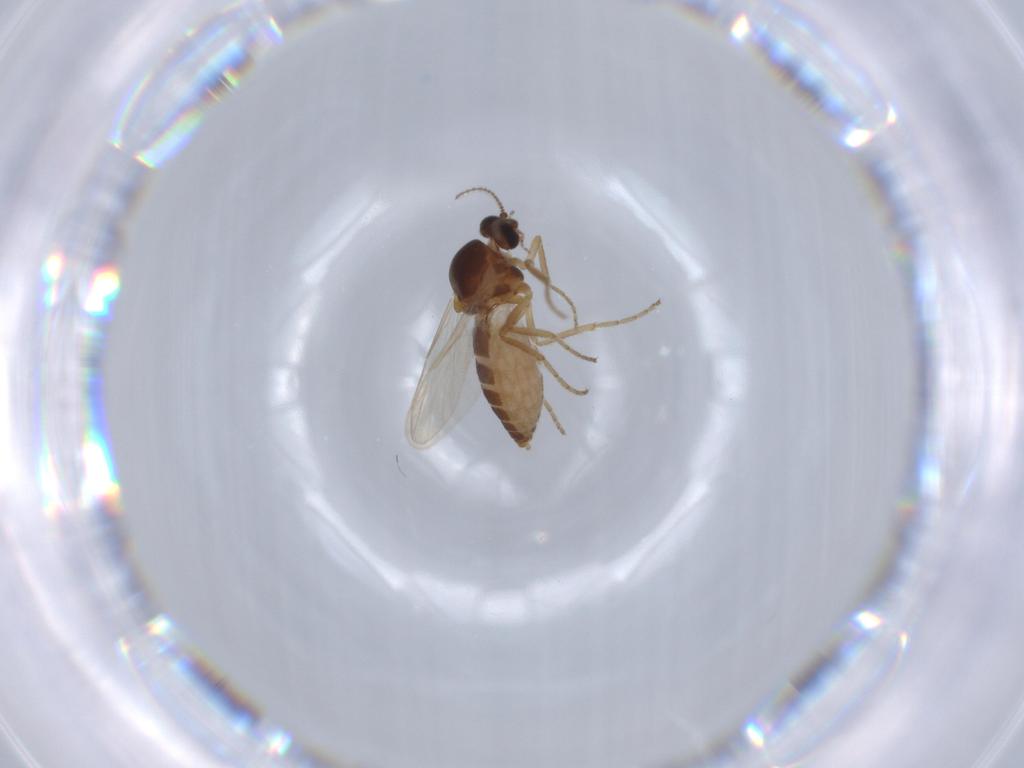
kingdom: Animalia
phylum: Arthropoda
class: Insecta
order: Diptera
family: Ceratopogonidae
